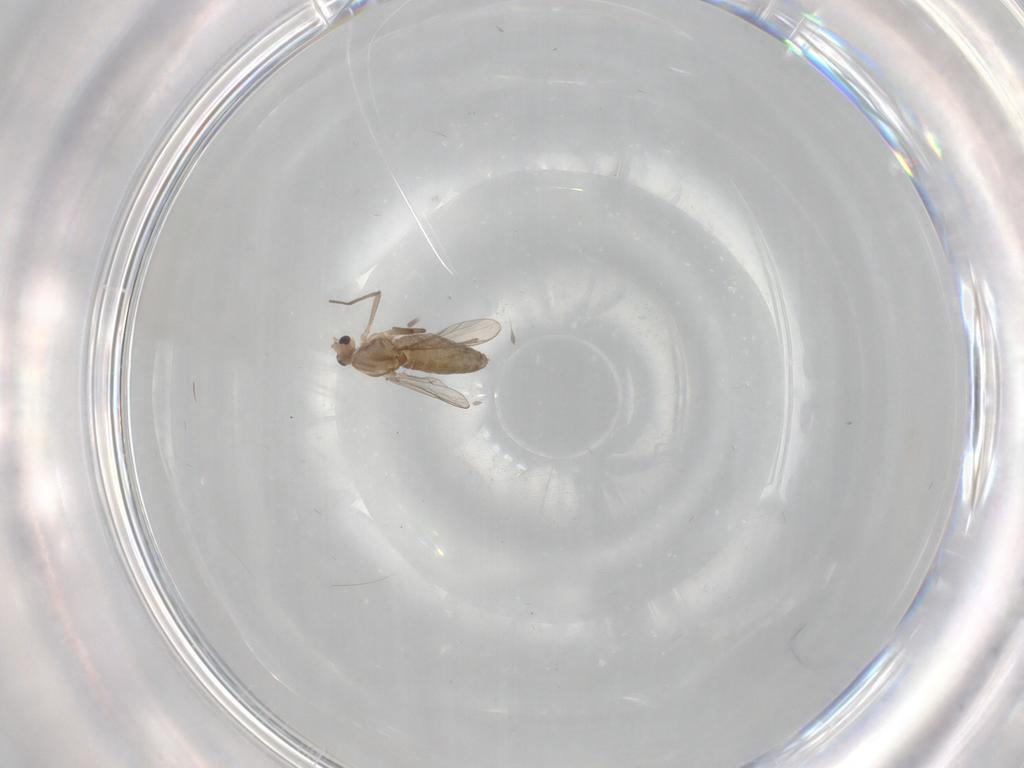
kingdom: Animalia
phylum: Arthropoda
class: Insecta
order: Diptera
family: Chironomidae
